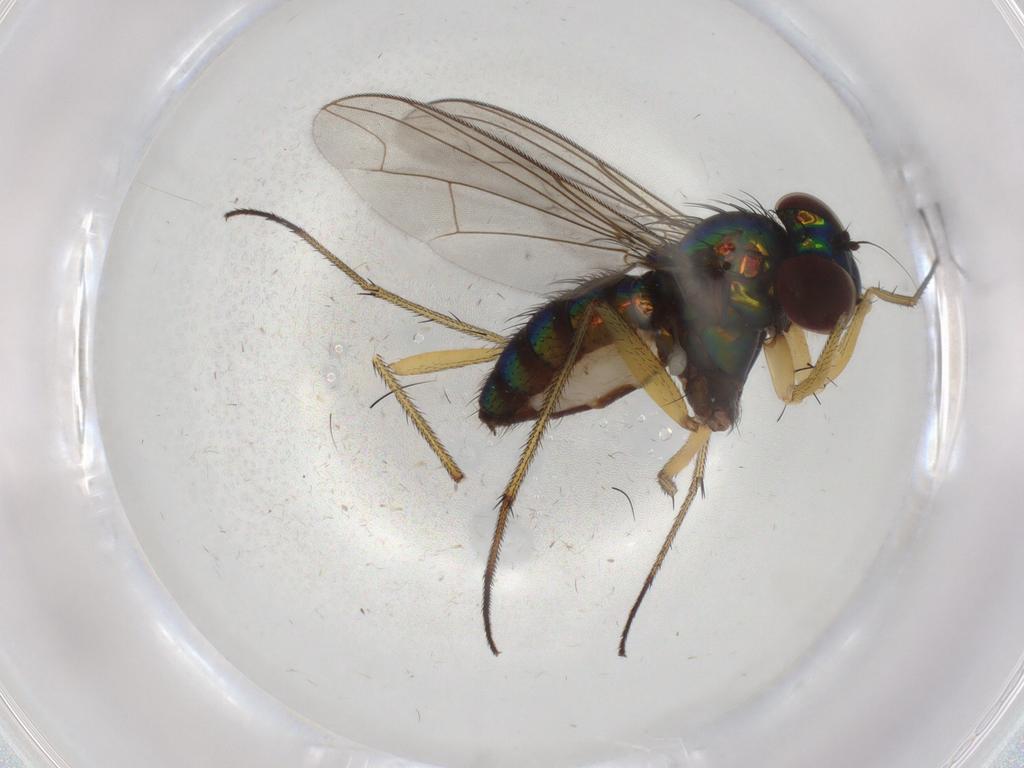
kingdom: Animalia
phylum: Arthropoda
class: Insecta
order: Diptera
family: Dolichopodidae
